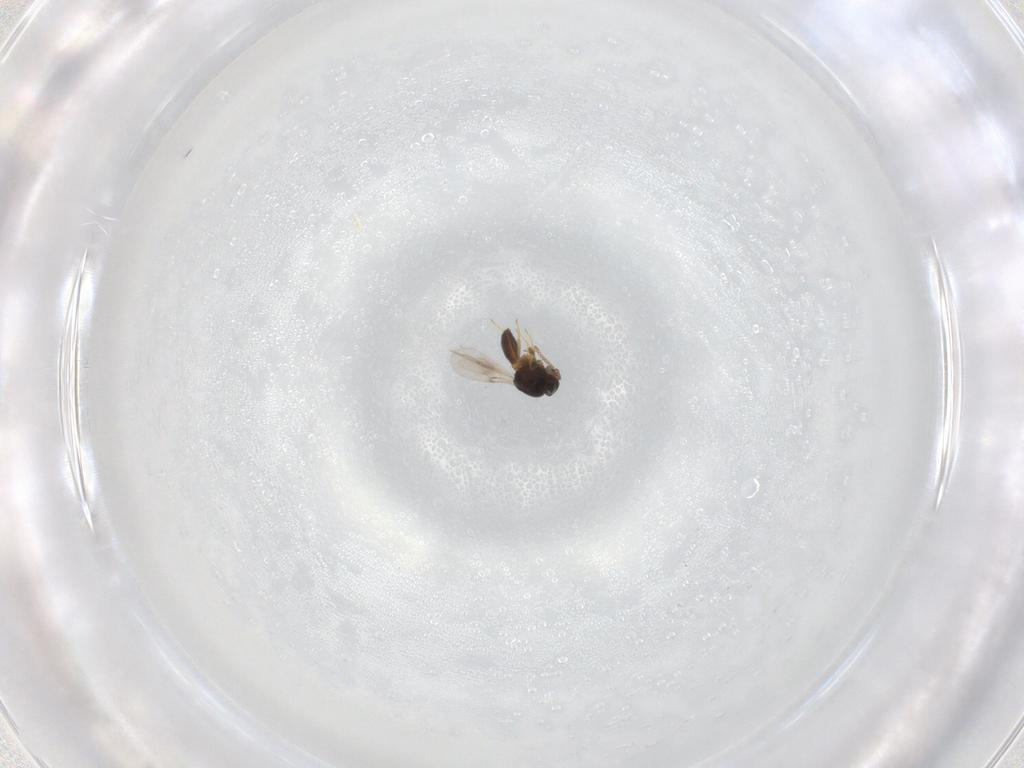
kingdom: Animalia
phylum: Arthropoda
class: Insecta
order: Hymenoptera
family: Scelionidae
